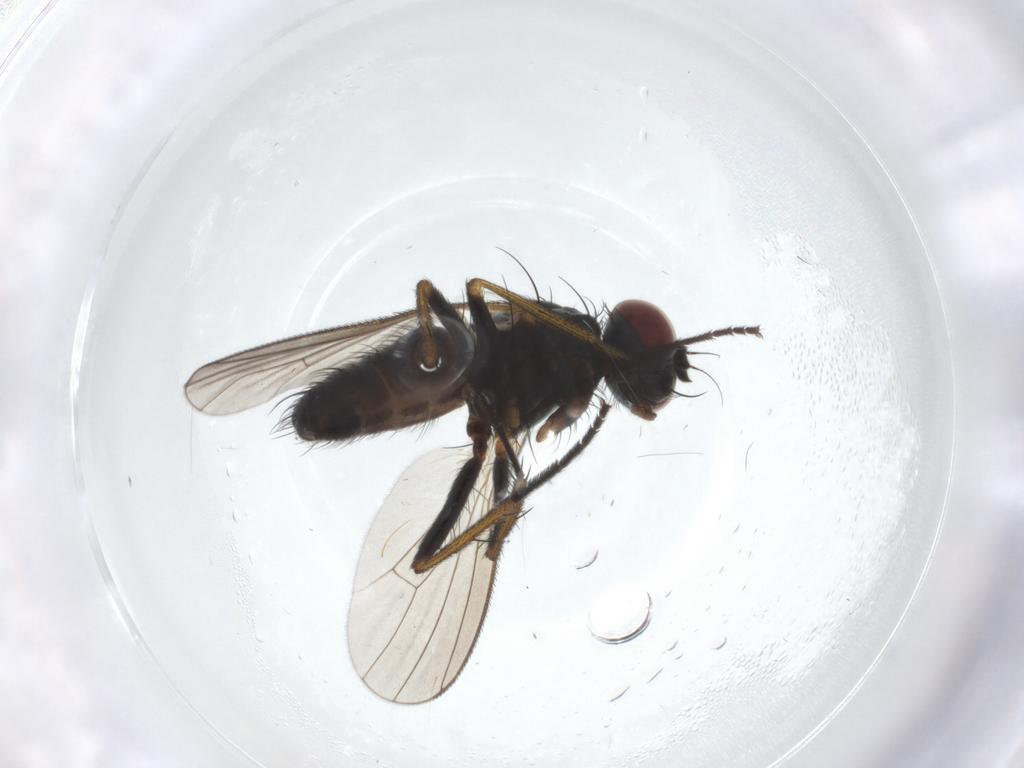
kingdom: Animalia
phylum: Arthropoda
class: Insecta
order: Diptera
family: Muscidae
